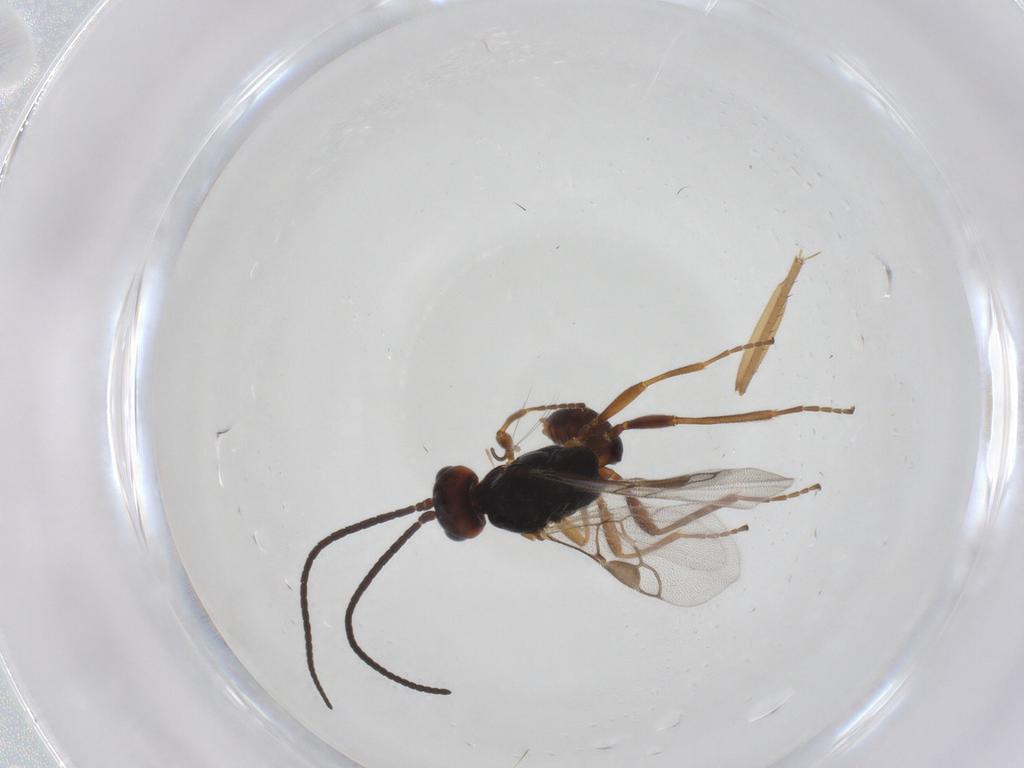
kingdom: Animalia
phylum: Arthropoda
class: Insecta
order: Hymenoptera
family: Braconidae
